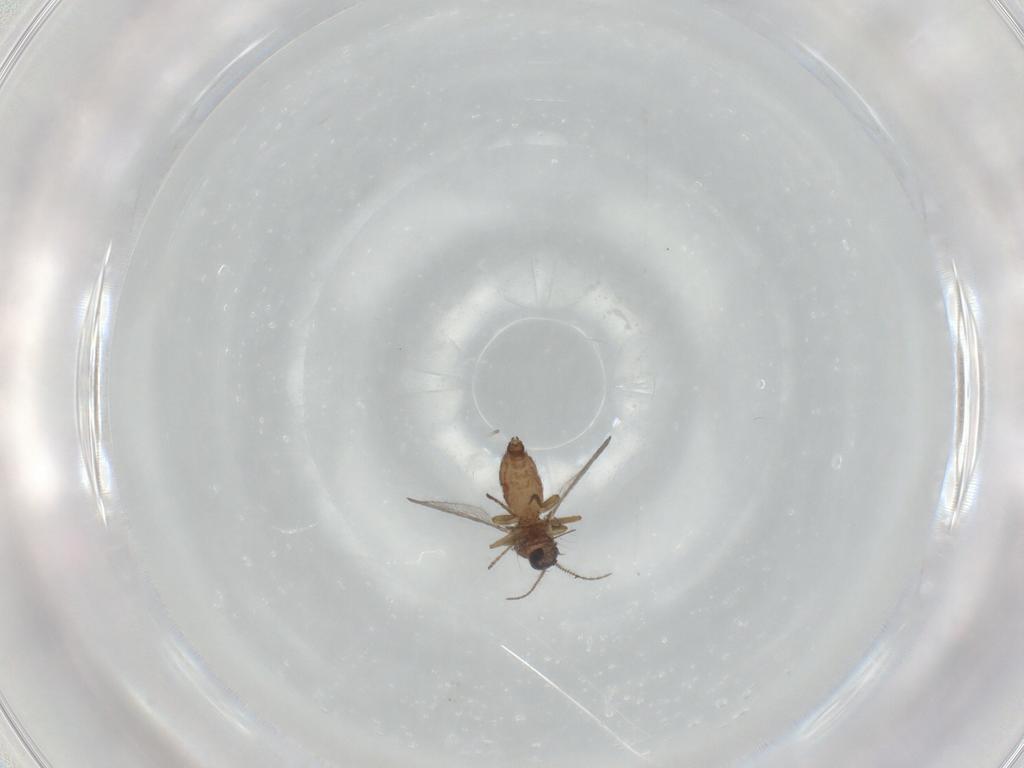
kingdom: Animalia
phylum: Arthropoda
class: Insecta
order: Diptera
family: Ceratopogonidae
